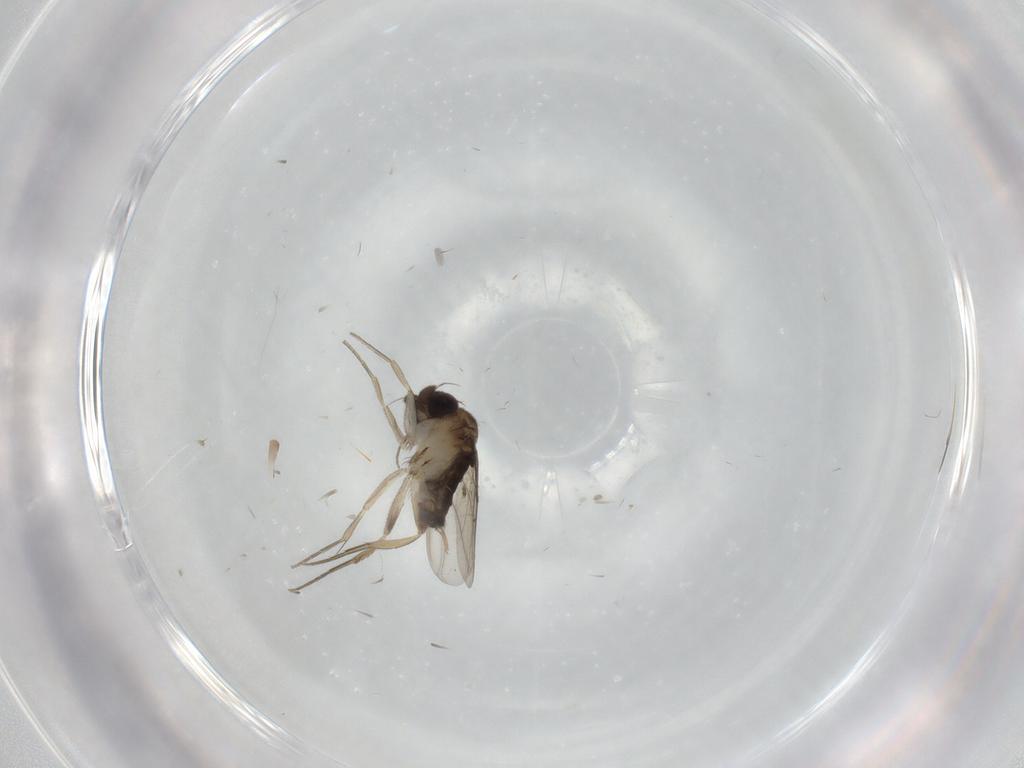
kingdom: Animalia
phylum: Arthropoda
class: Insecta
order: Diptera
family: Phoridae
